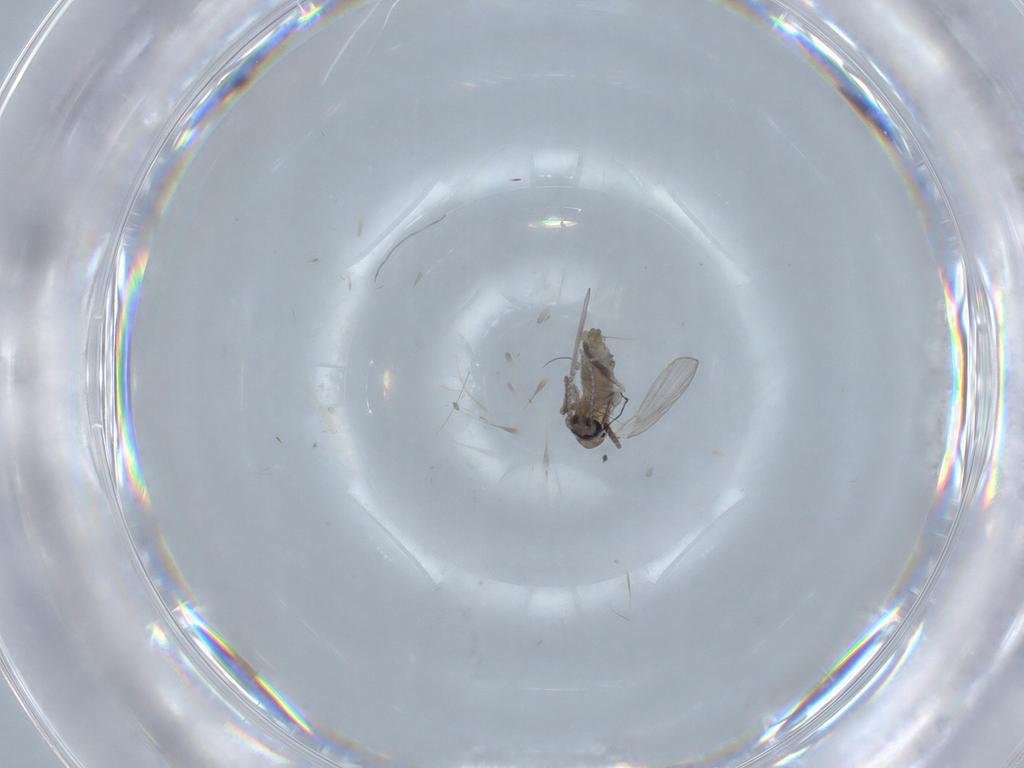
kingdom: Animalia
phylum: Arthropoda
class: Insecta
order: Diptera
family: Psychodidae
